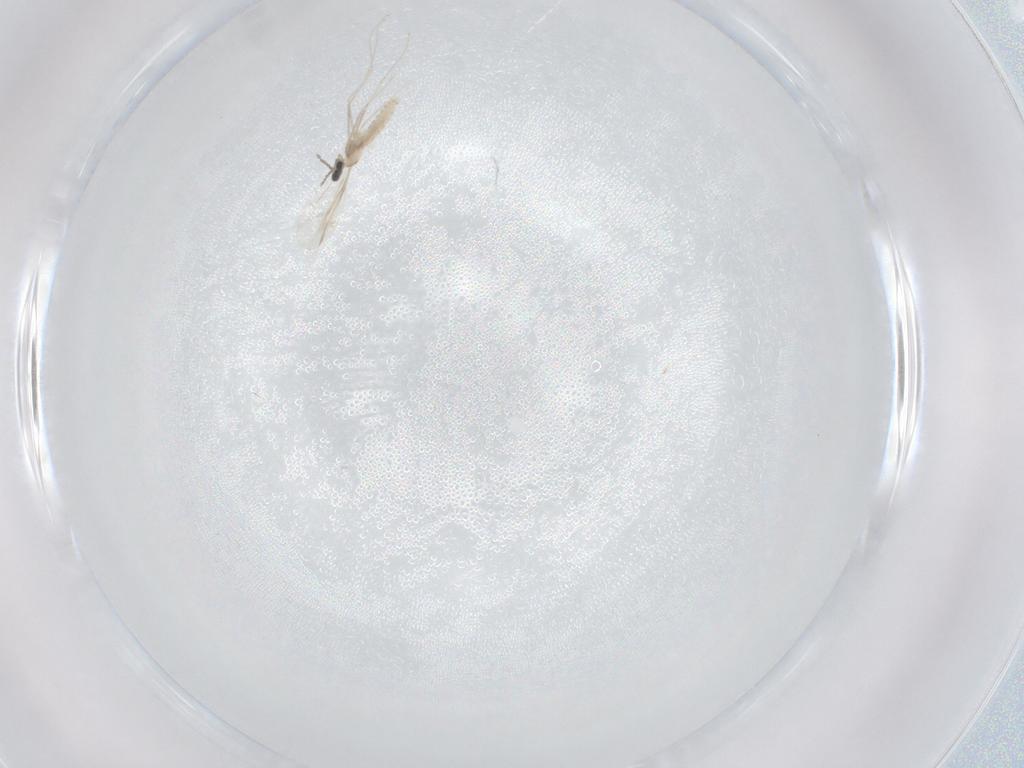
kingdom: Animalia
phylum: Arthropoda
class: Insecta
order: Diptera
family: Cecidomyiidae
